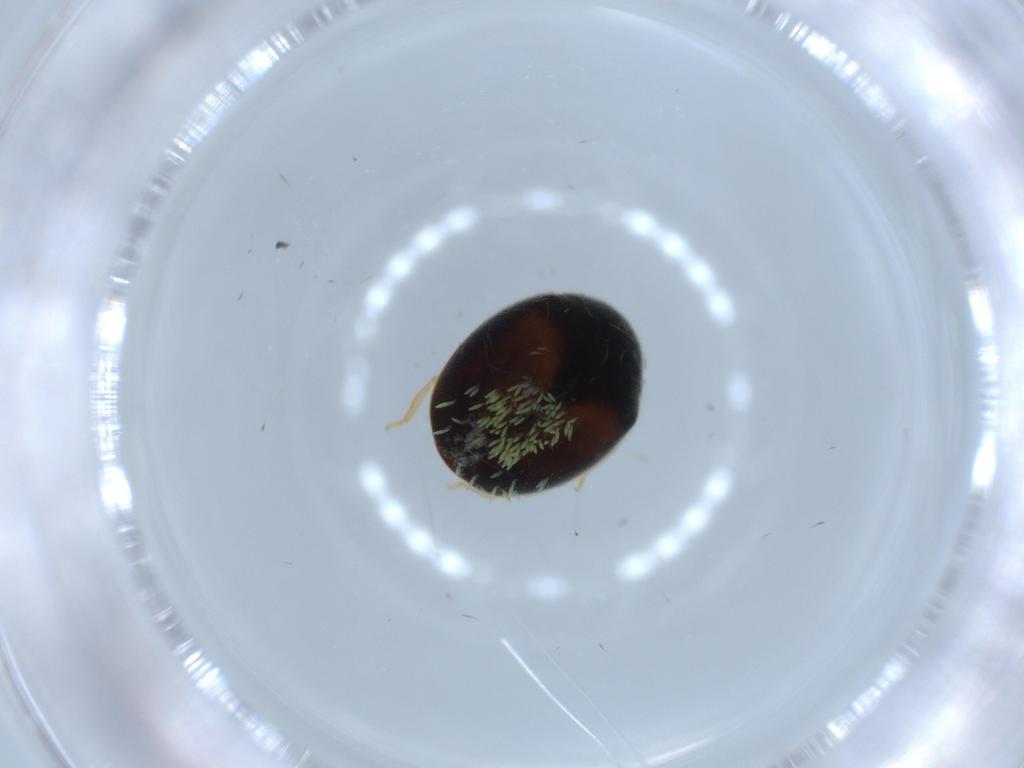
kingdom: Animalia
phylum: Arthropoda
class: Insecta
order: Coleoptera
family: Coccinellidae
